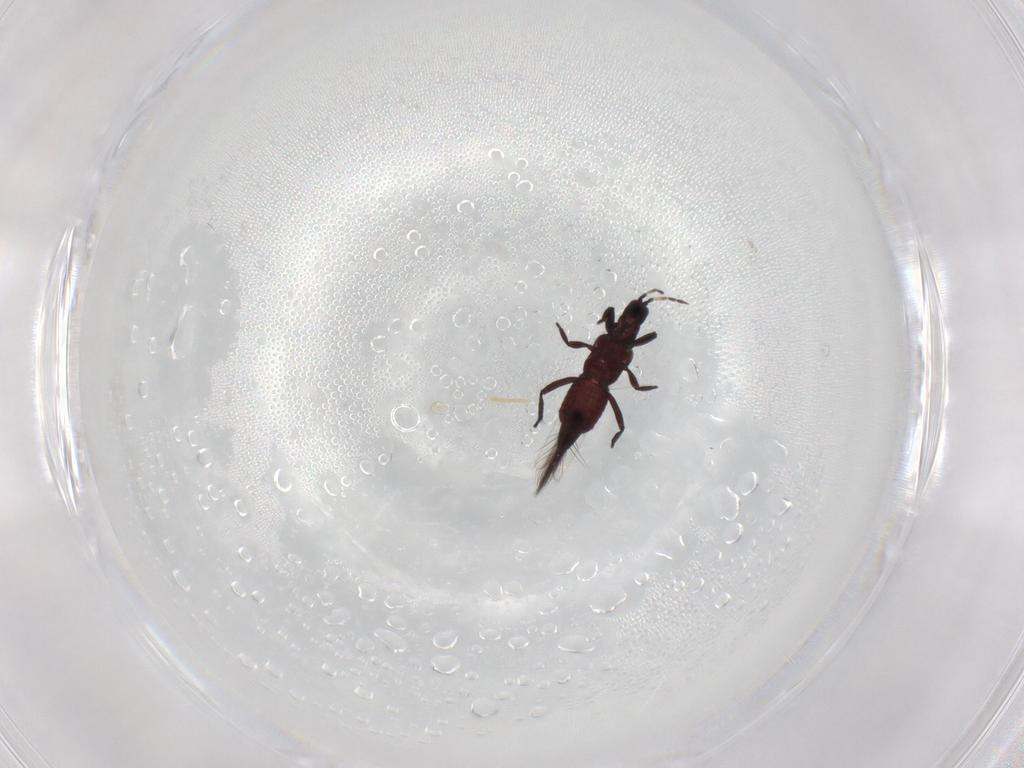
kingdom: Animalia
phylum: Arthropoda
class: Insecta
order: Thysanoptera
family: Aeolothripidae
